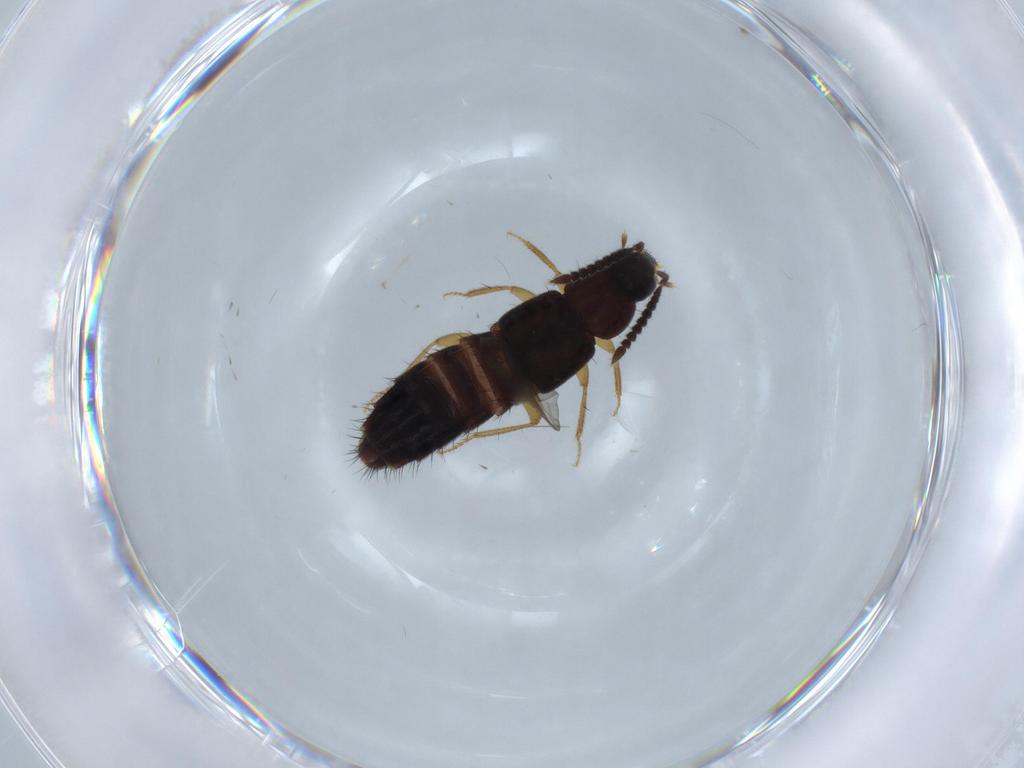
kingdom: Animalia
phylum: Arthropoda
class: Insecta
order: Coleoptera
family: Staphylinidae
